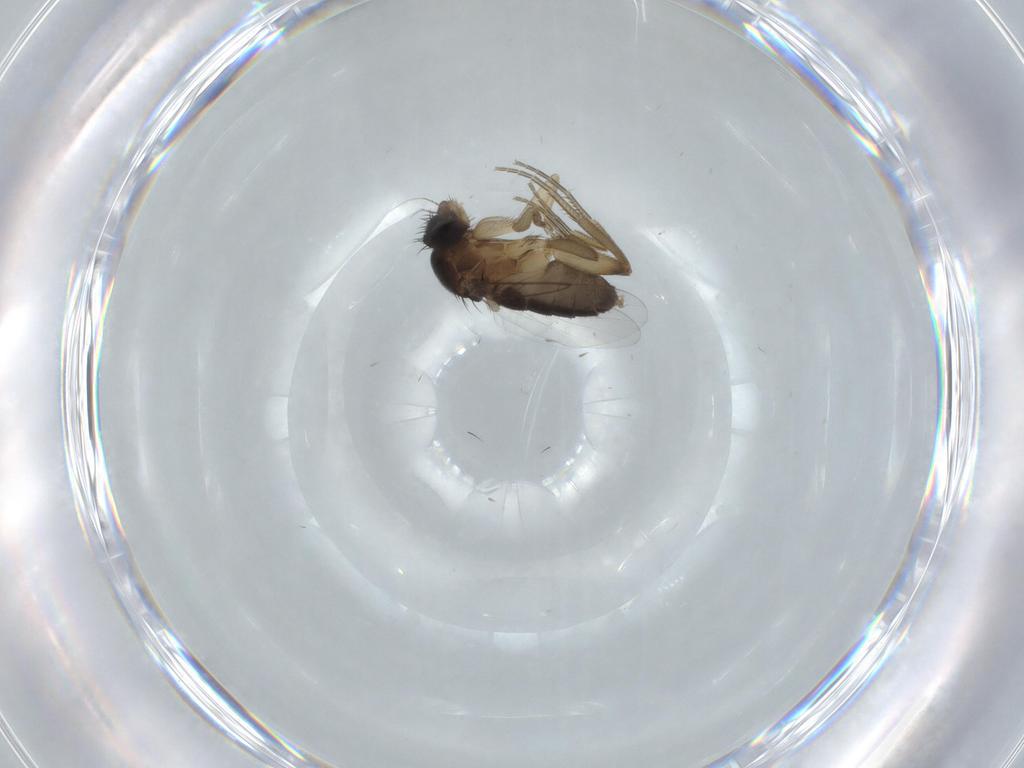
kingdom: Animalia
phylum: Arthropoda
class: Insecta
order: Diptera
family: Phoridae
